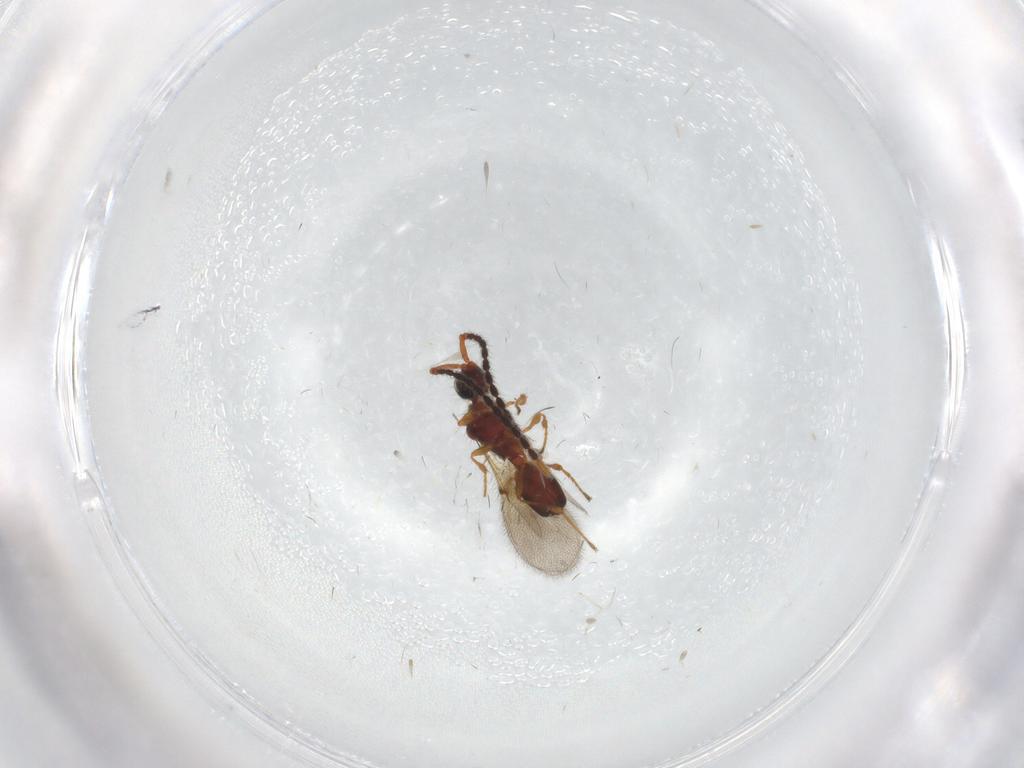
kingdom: Animalia
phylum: Arthropoda
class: Insecta
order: Hymenoptera
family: Diapriidae
